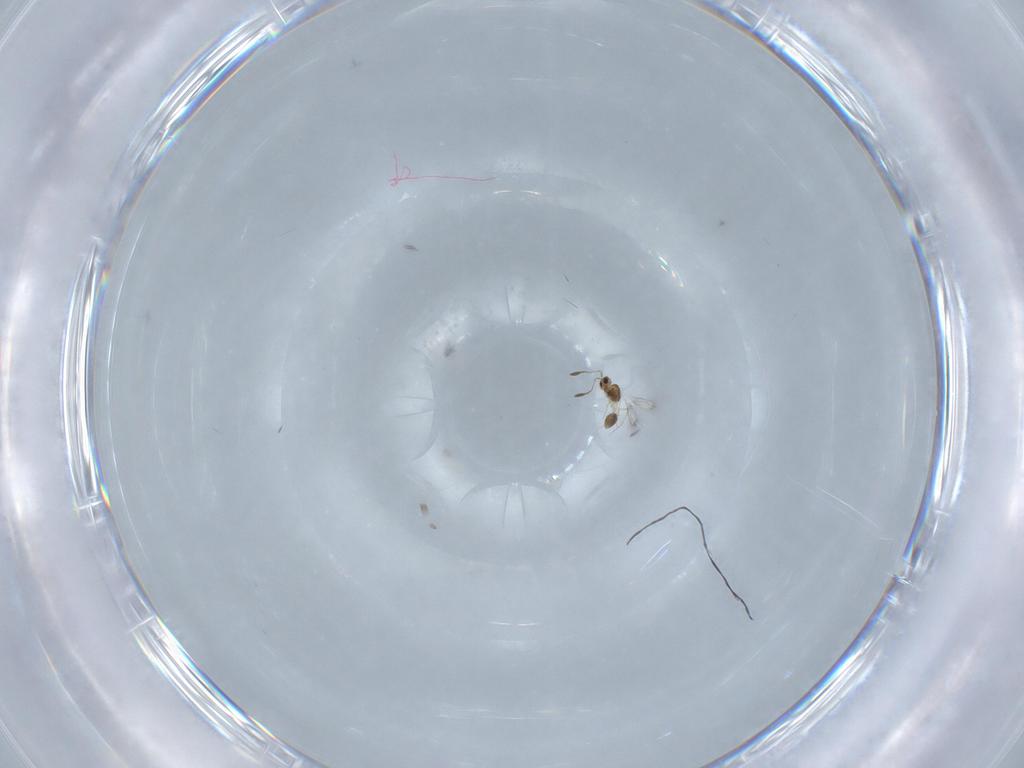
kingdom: Animalia
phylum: Arthropoda
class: Insecta
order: Hymenoptera
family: Mymarommatidae
